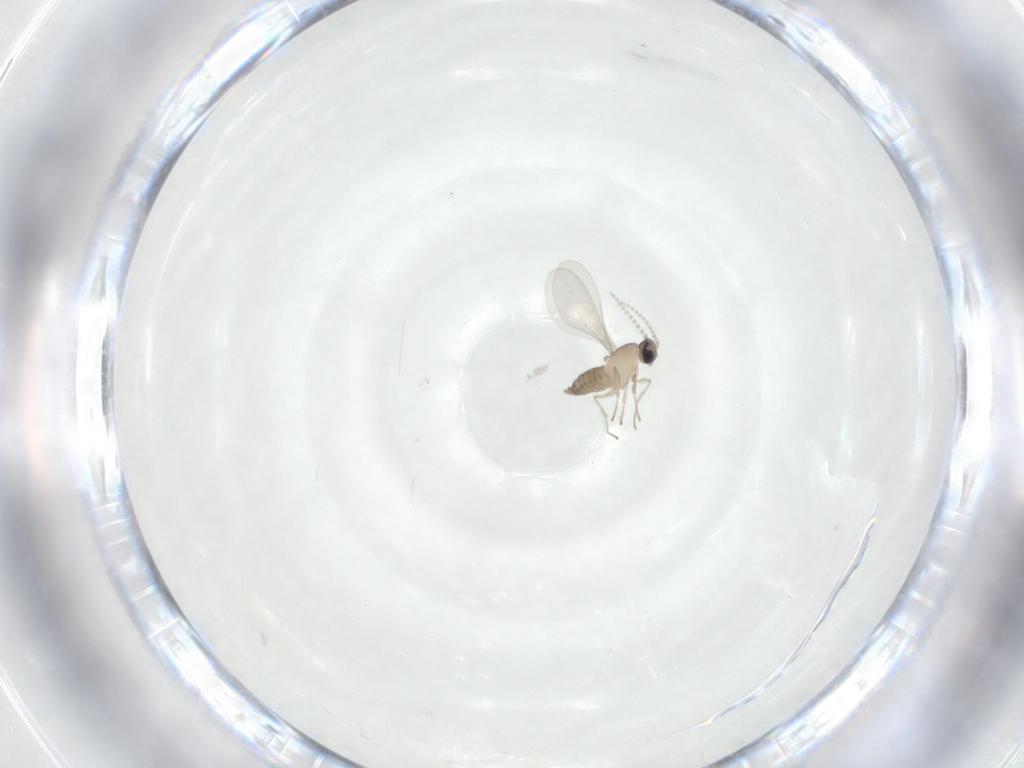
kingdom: Animalia
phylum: Arthropoda
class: Insecta
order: Diptera
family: Cecidomyiidae
